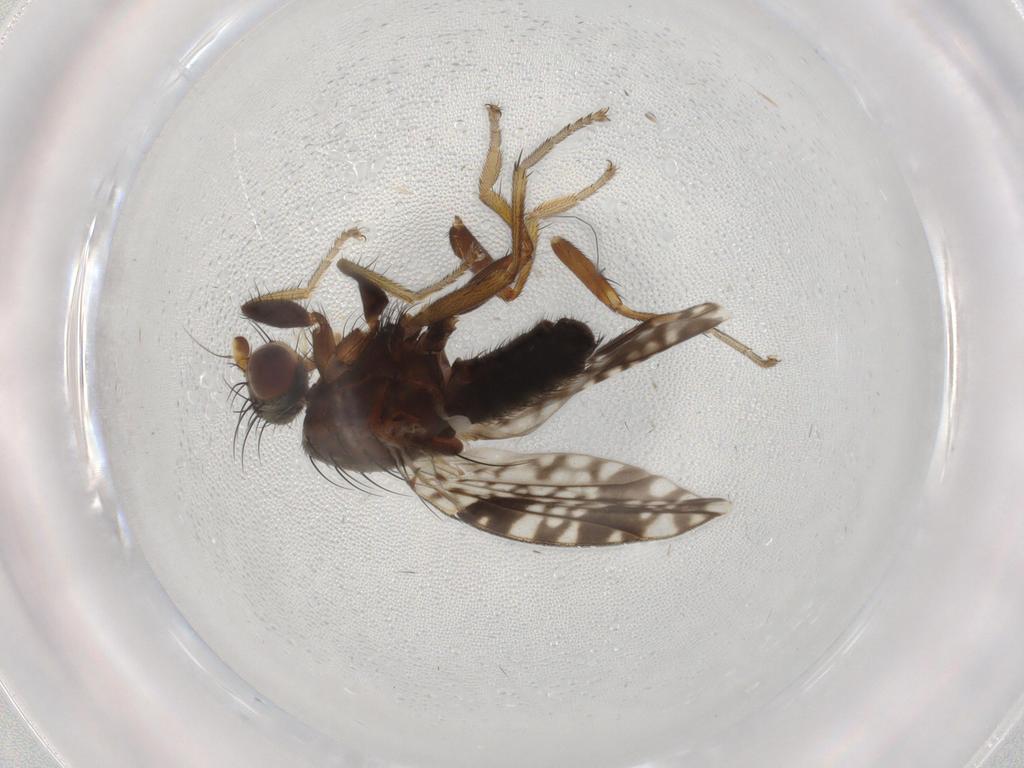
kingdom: Animalia
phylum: Arthropoda
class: Insecta
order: Diptera
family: Tephritidae
